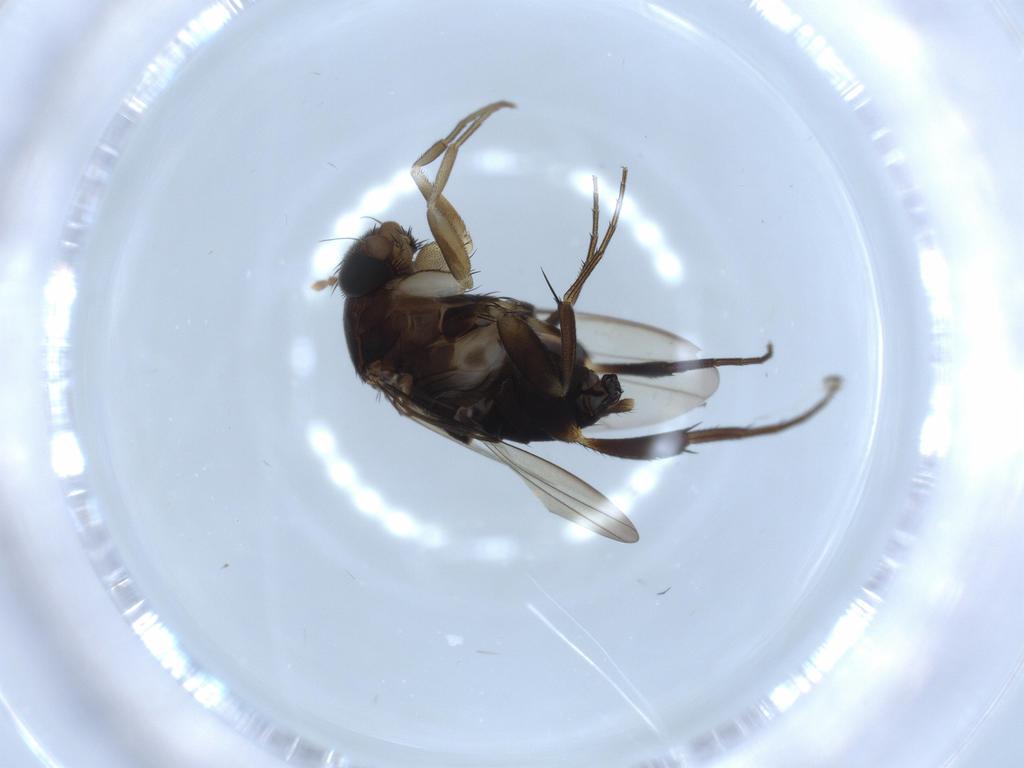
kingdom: Animalia
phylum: Arthropoda
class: Insecta
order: Diptera
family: Phoridae
